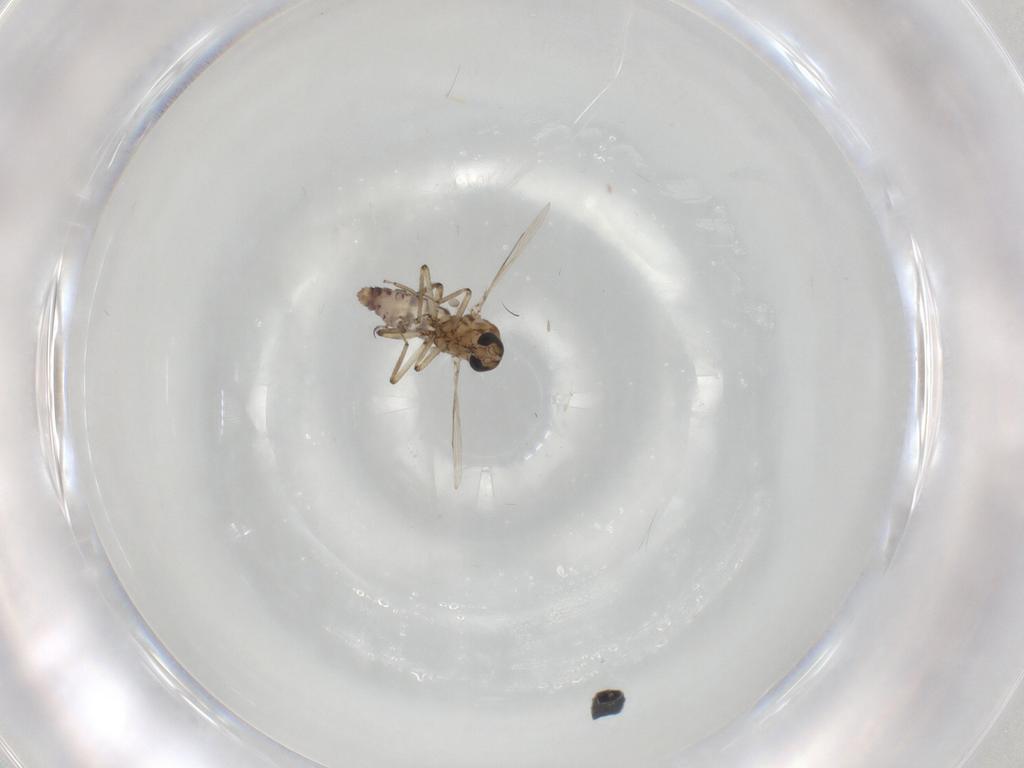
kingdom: Animalia
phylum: Arthropoda
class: Insecta
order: Diptera
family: Ceratopogonidae
